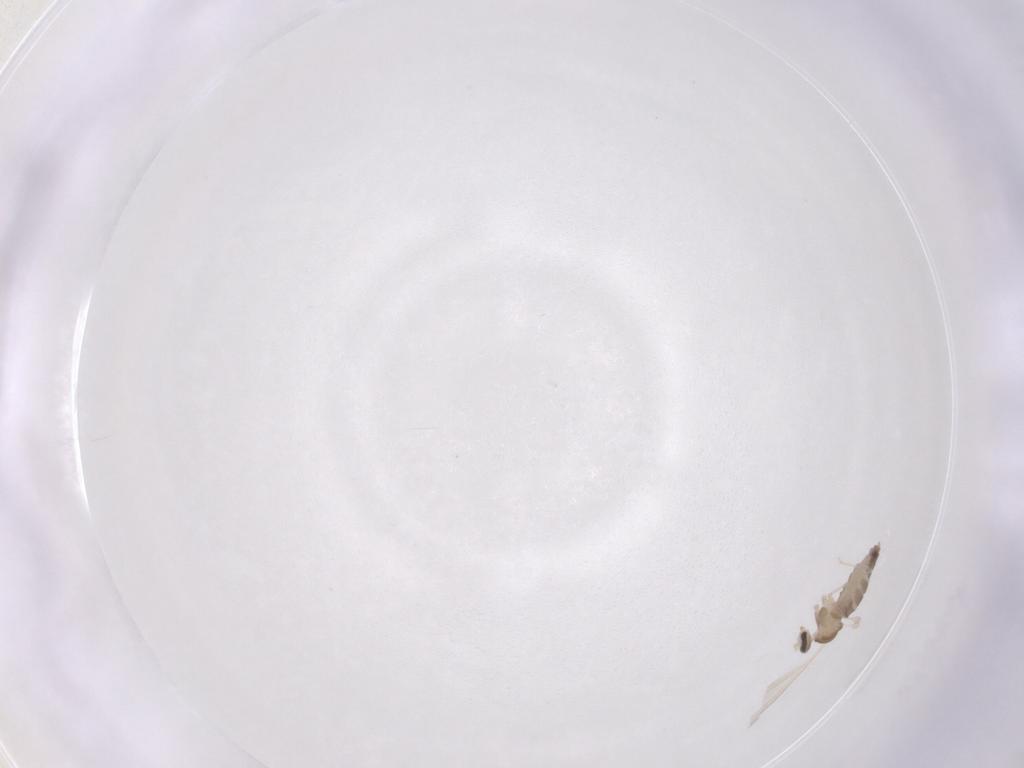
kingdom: Animalia
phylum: Arthropoda
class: Insecta
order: Diptera
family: Cecidomyiidae
